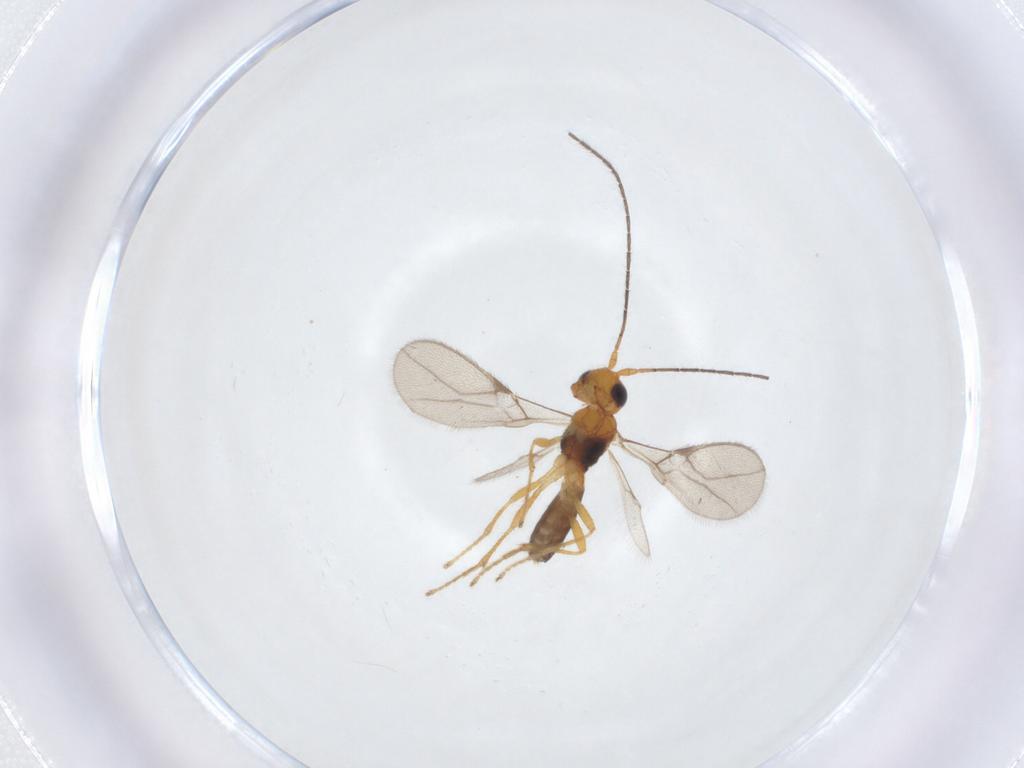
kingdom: Animalia
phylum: Arthropoda
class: Insecta
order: Hymenoptera
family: Braconidae
